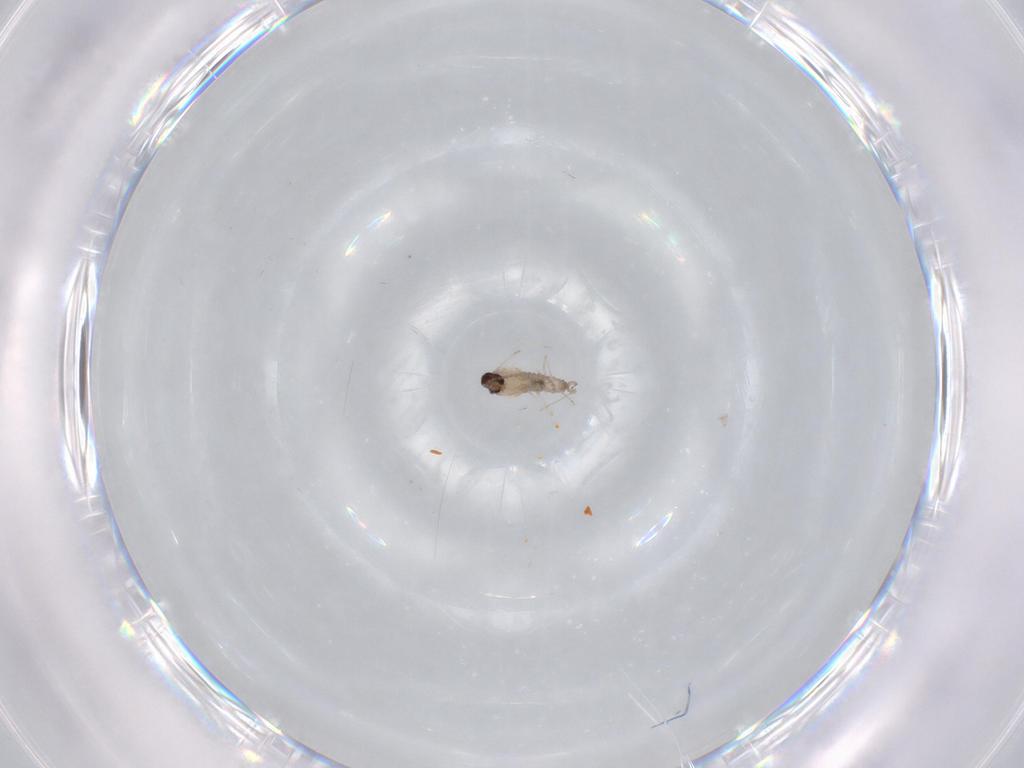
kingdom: Animalia
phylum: Arthropoda
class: Insecta
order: Diptera
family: Cecidomyiidae
